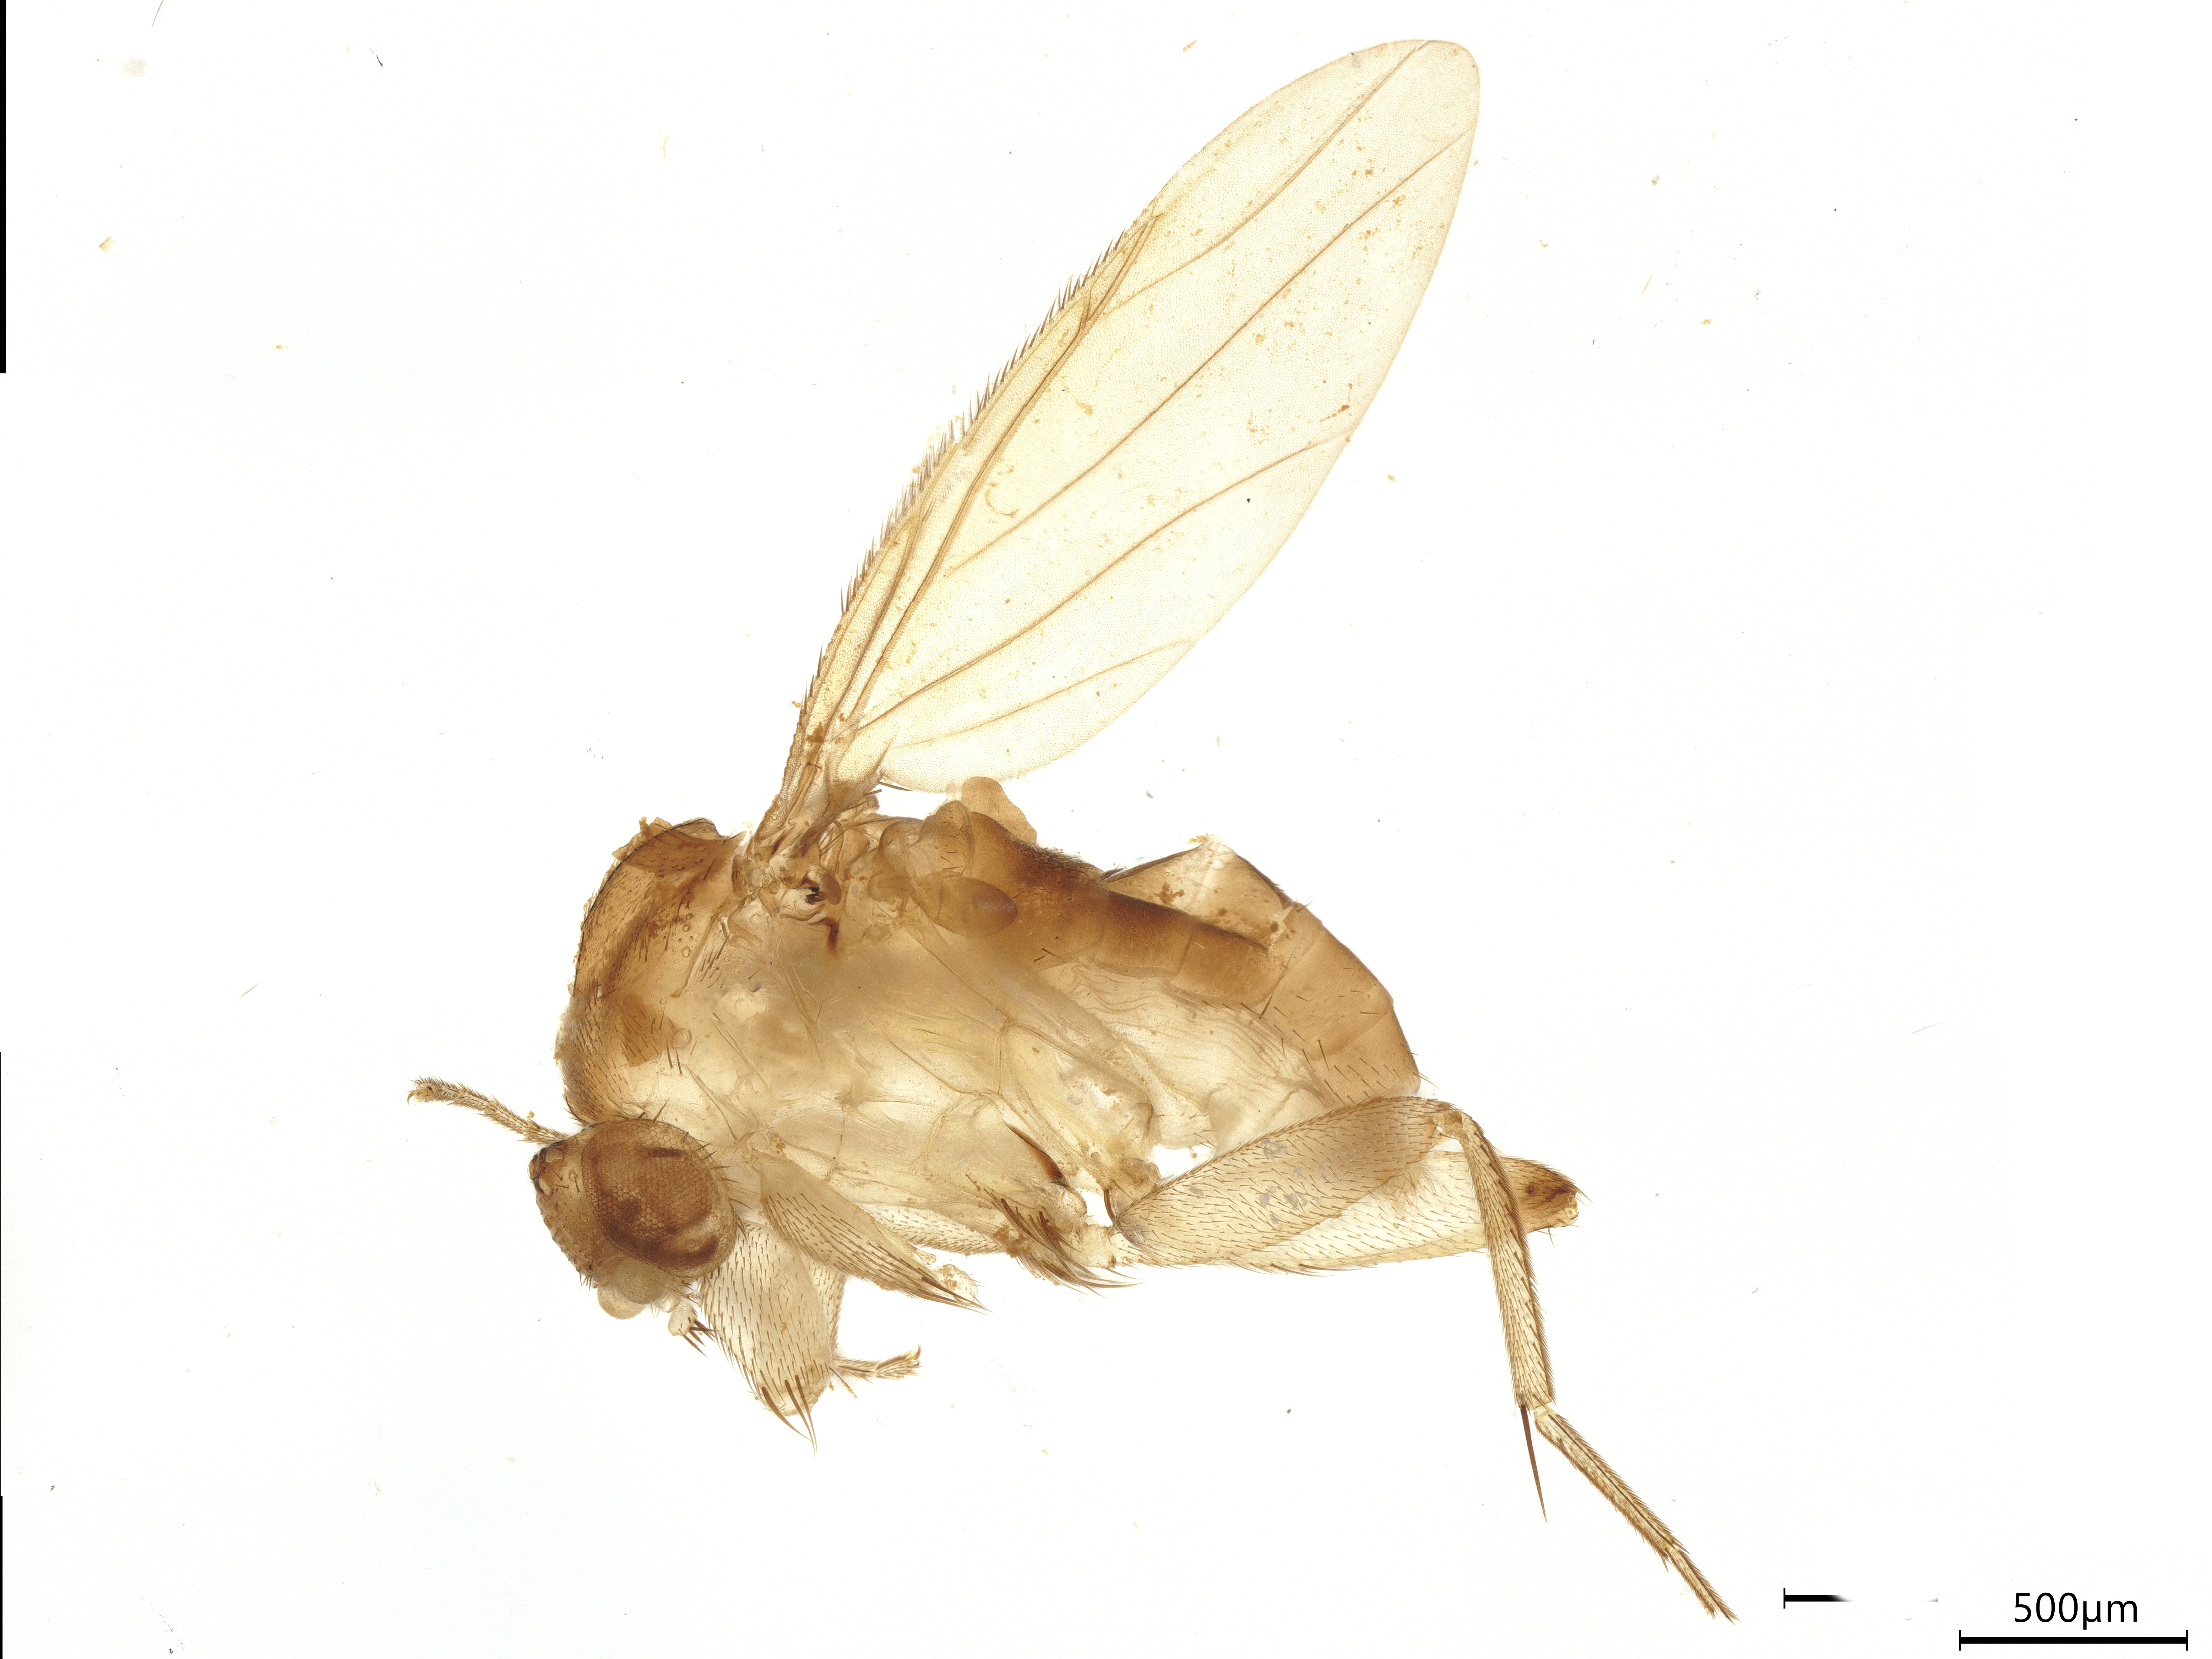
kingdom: Animalia
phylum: Arthropoda
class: Insecta
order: Diptera
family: Phoridae
